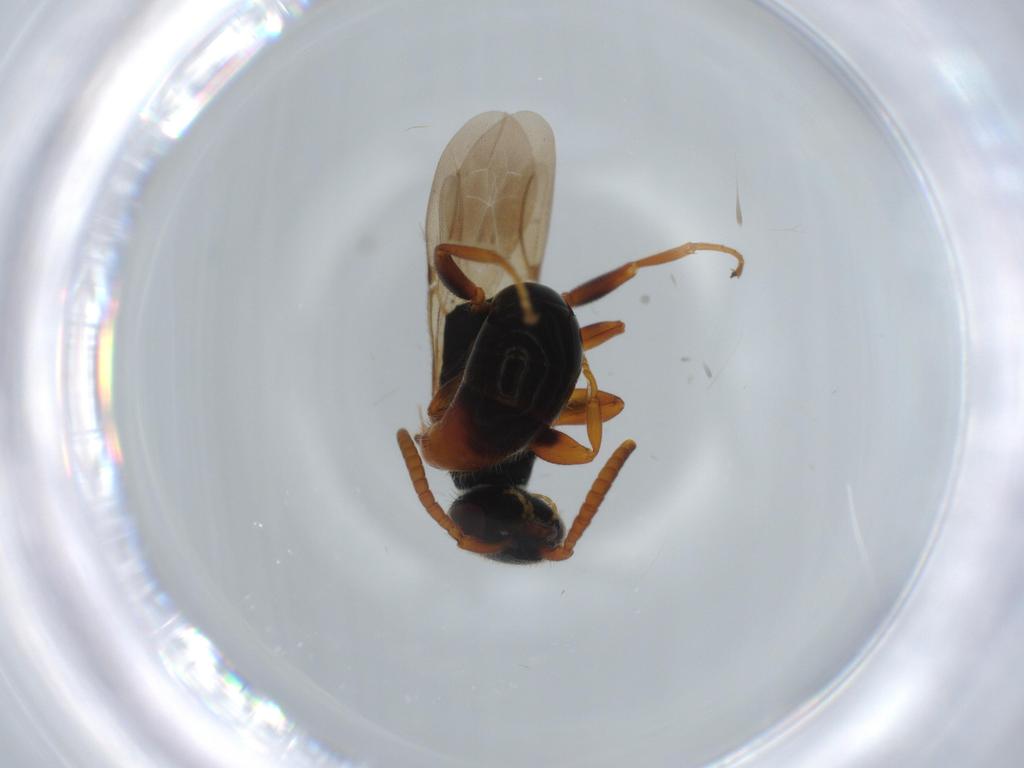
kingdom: Animalia
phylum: Arthropoda
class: Insecta
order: Hymenoptera
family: Bethylidae
